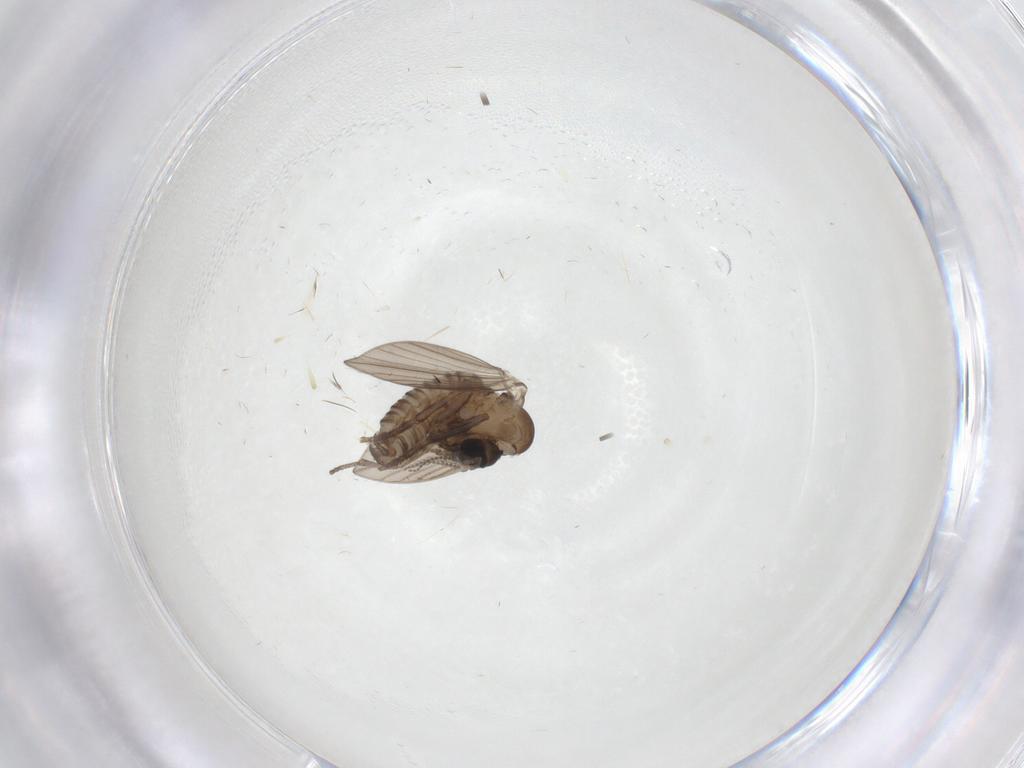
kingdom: Animalia
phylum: Arthropoda
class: Insecta
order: Diptera
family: Psychodidae
